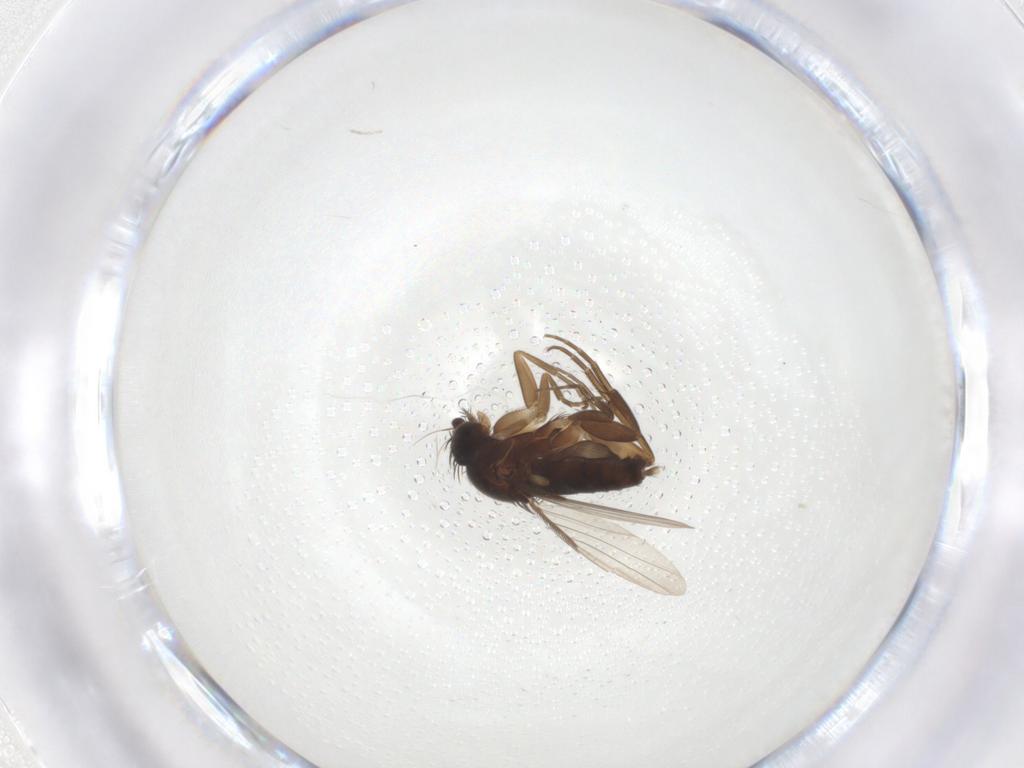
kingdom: Animalia
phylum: Arthropoda
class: Insecta
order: Diptera
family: Phoridae
